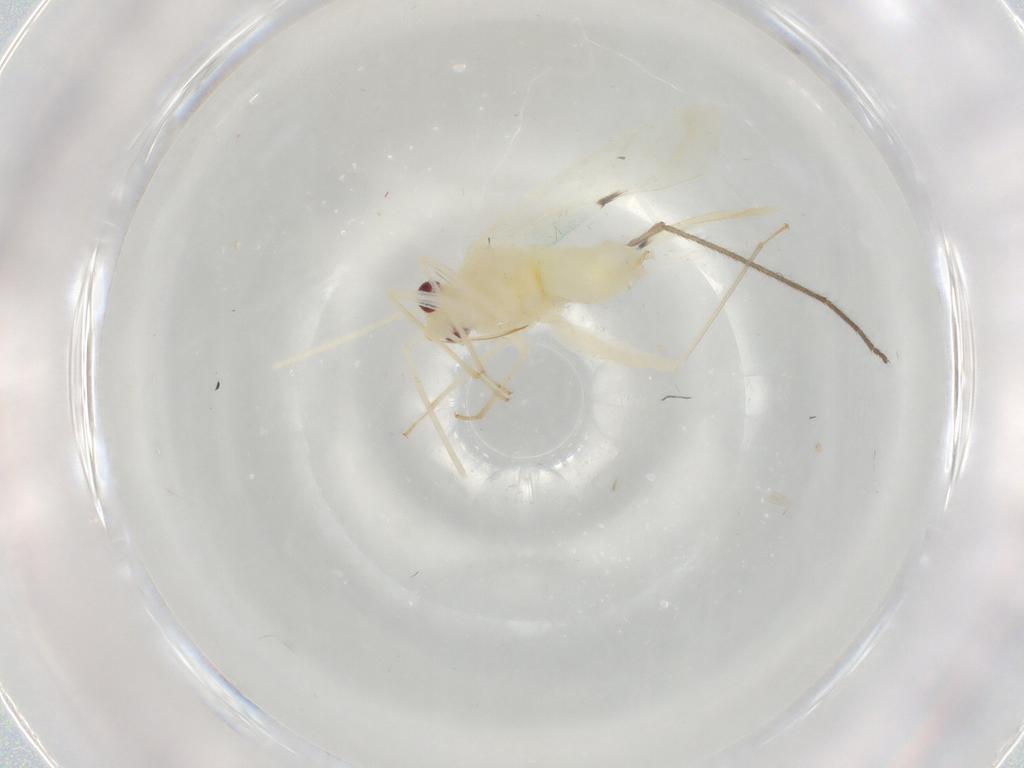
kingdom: Animalia
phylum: Arthropoda
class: Insecta
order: Hemiptera
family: Miridae
